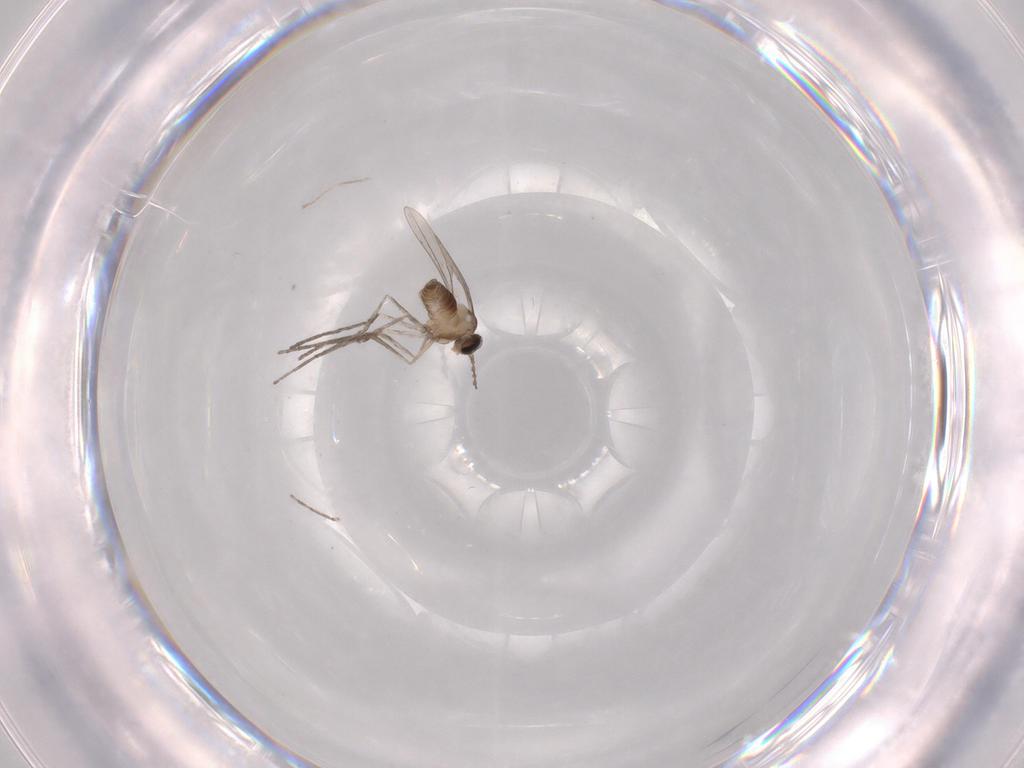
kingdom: Animalia
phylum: Arthropoda
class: Insecta
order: Diptera
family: Cecidomyiidae
